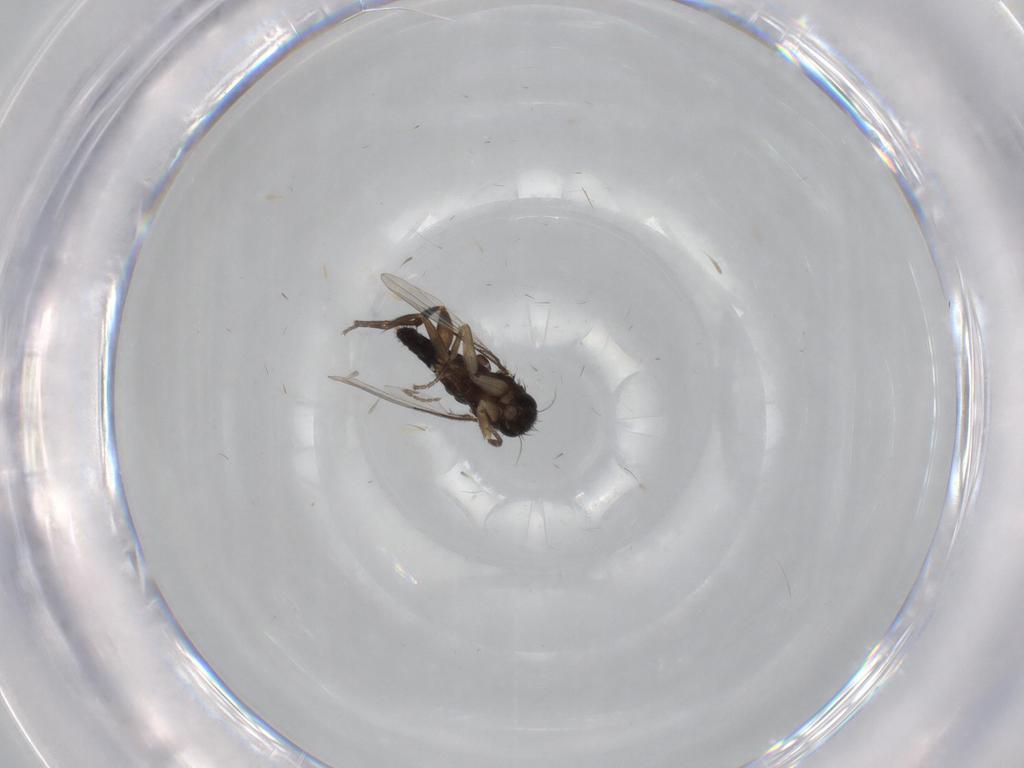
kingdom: Animalia
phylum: Arthropoda
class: Insecta
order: Diptera
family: Phoridae
